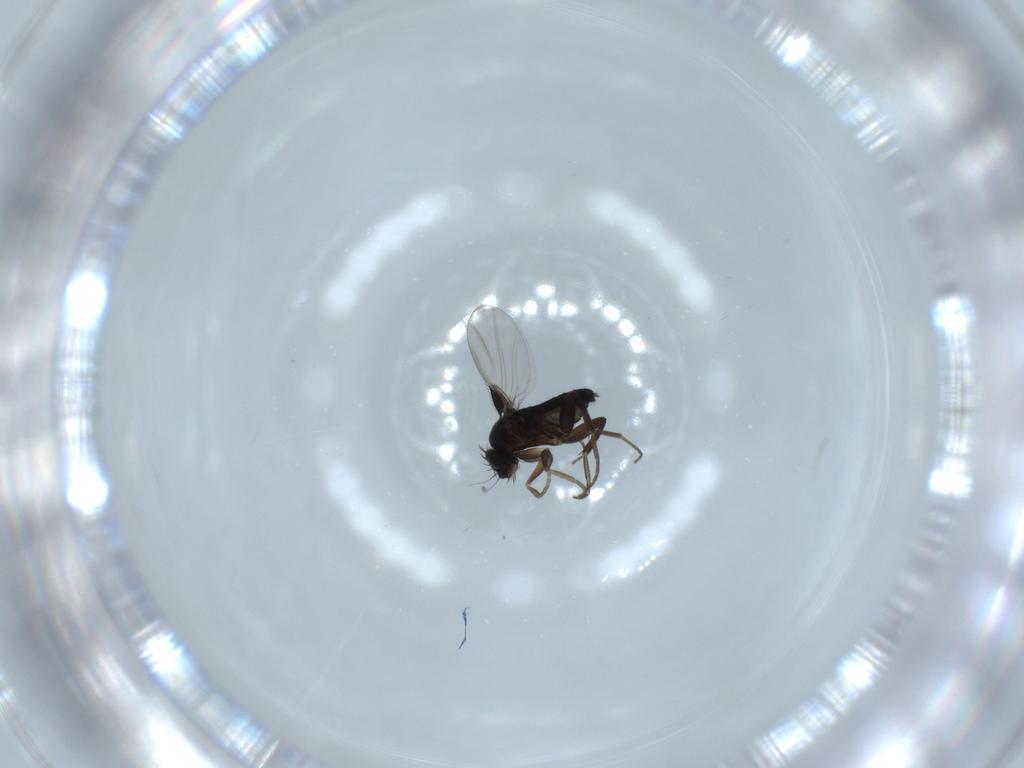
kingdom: Animalia
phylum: Arthropoda
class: Insecta
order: Diptera
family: Phoridae
